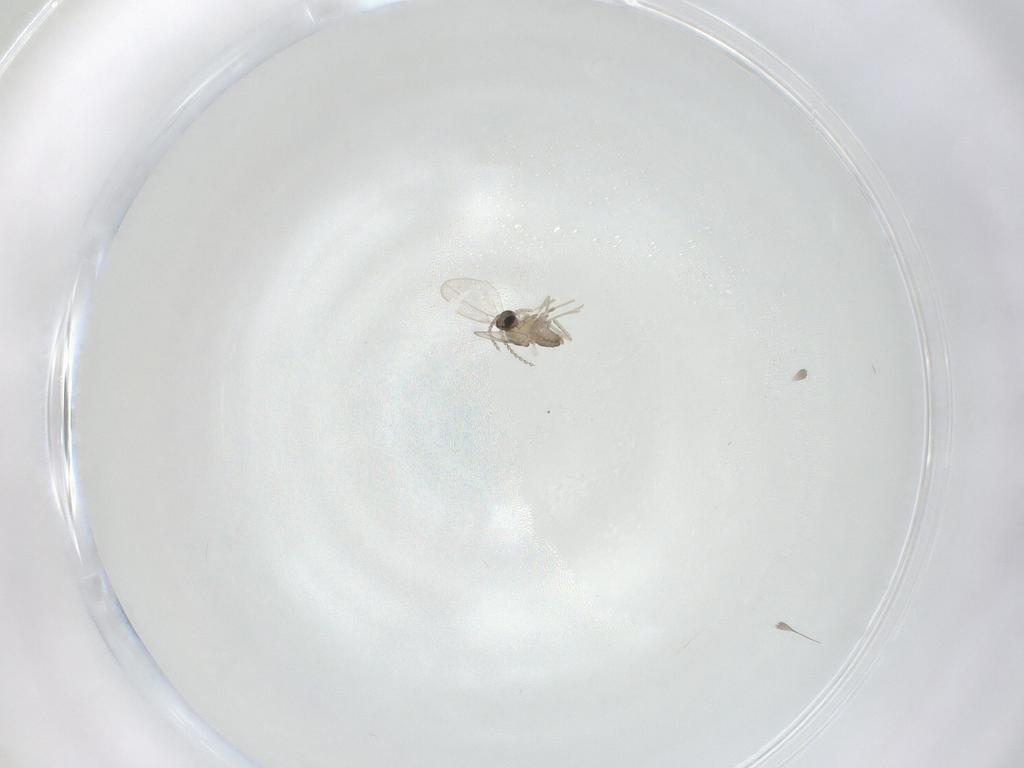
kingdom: Animalia
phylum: Arthropoda
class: Insecta
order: Diptera
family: Cecidomyiidae
